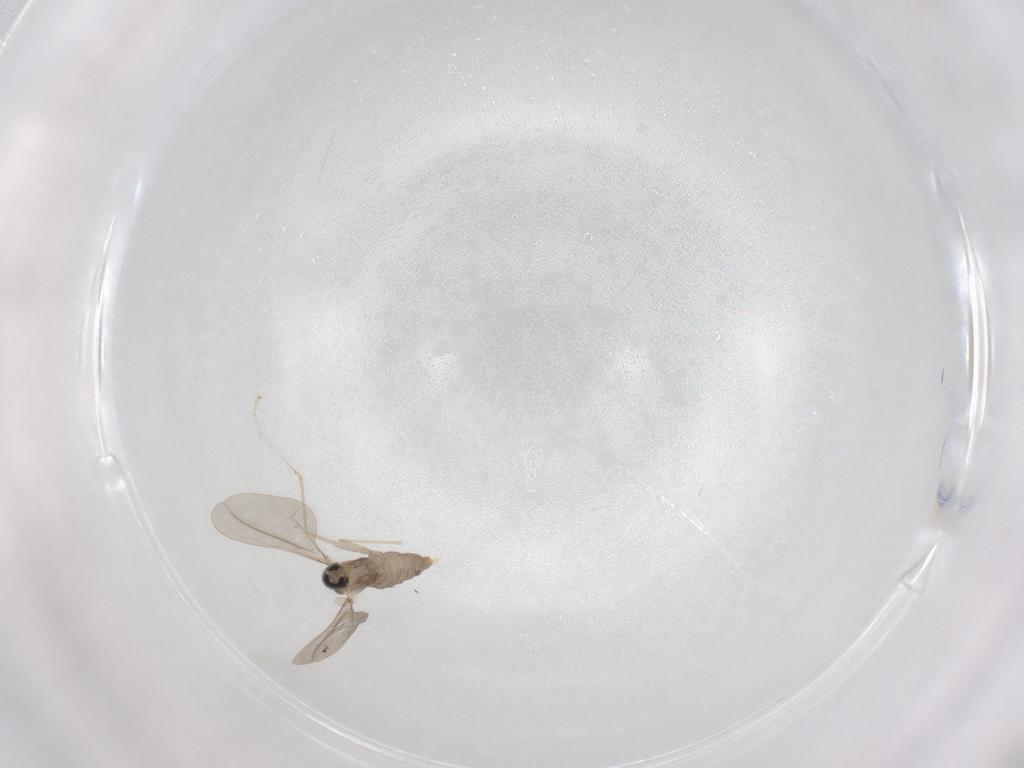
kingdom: Animalia
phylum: Arthropoda
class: Insecta
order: Diptera
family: Cecidomyiidae
